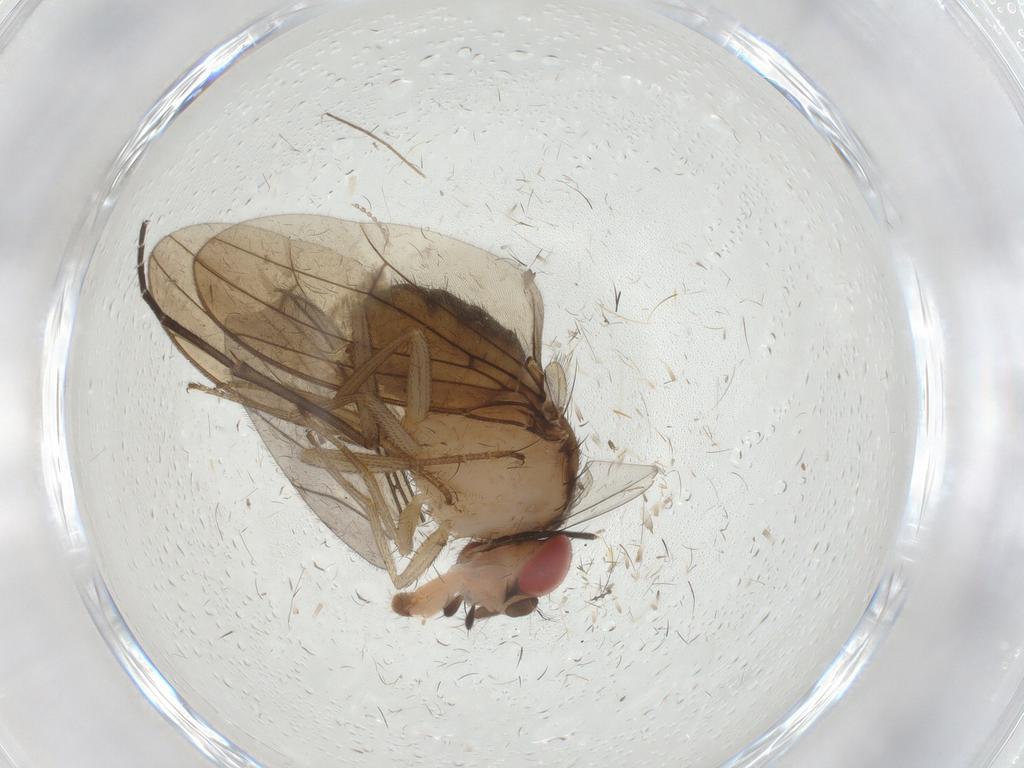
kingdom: Animalia
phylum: Arthropoda
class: Insecta
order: Diptera
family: Drosophilidae
